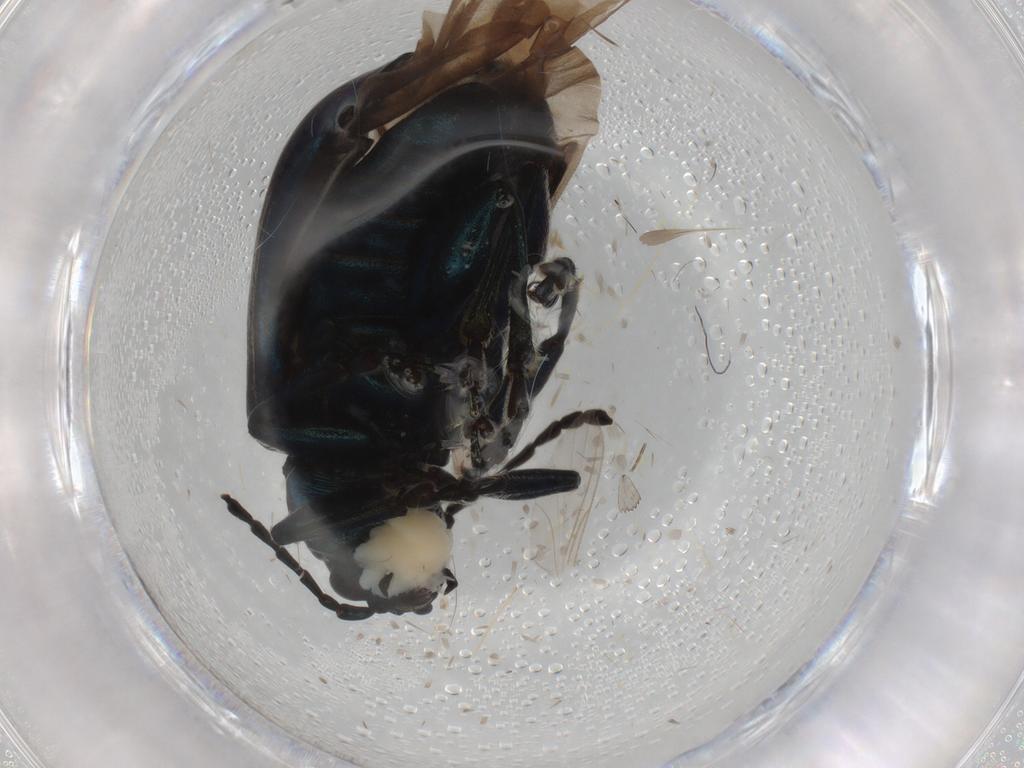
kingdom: Animalia
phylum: Arthropoda
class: Insecta
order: Coleoptera
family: Chrysomelidae
